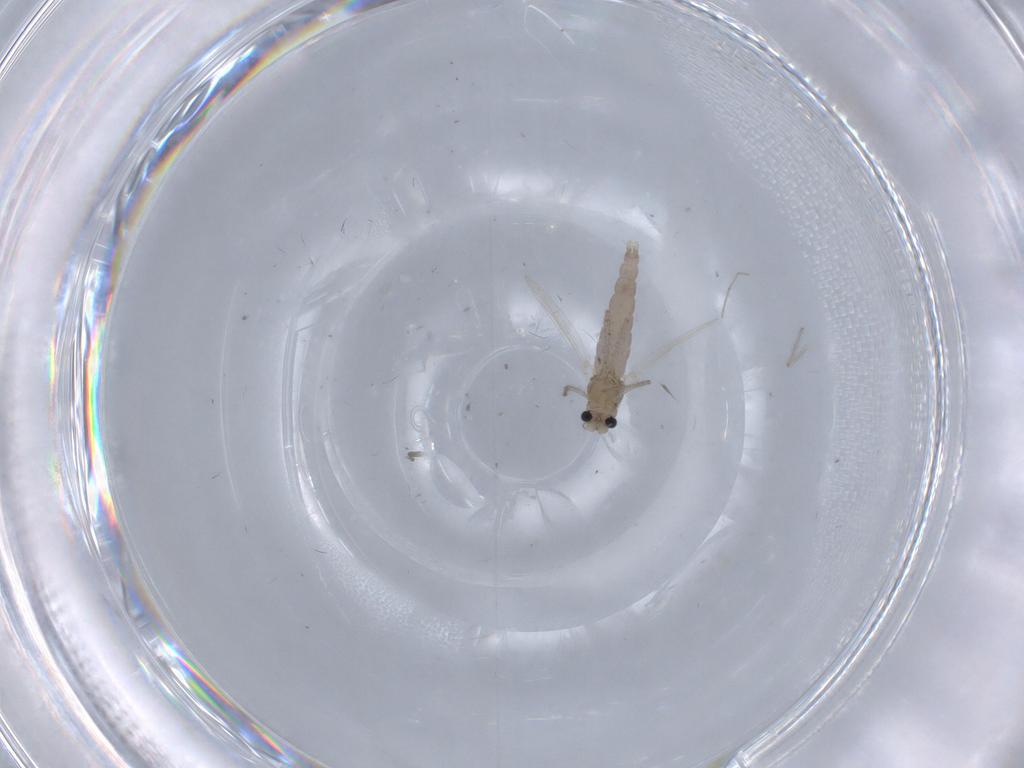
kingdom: Animalia
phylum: Arthropoda
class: Insecta
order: Diptera
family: Chironomidae
